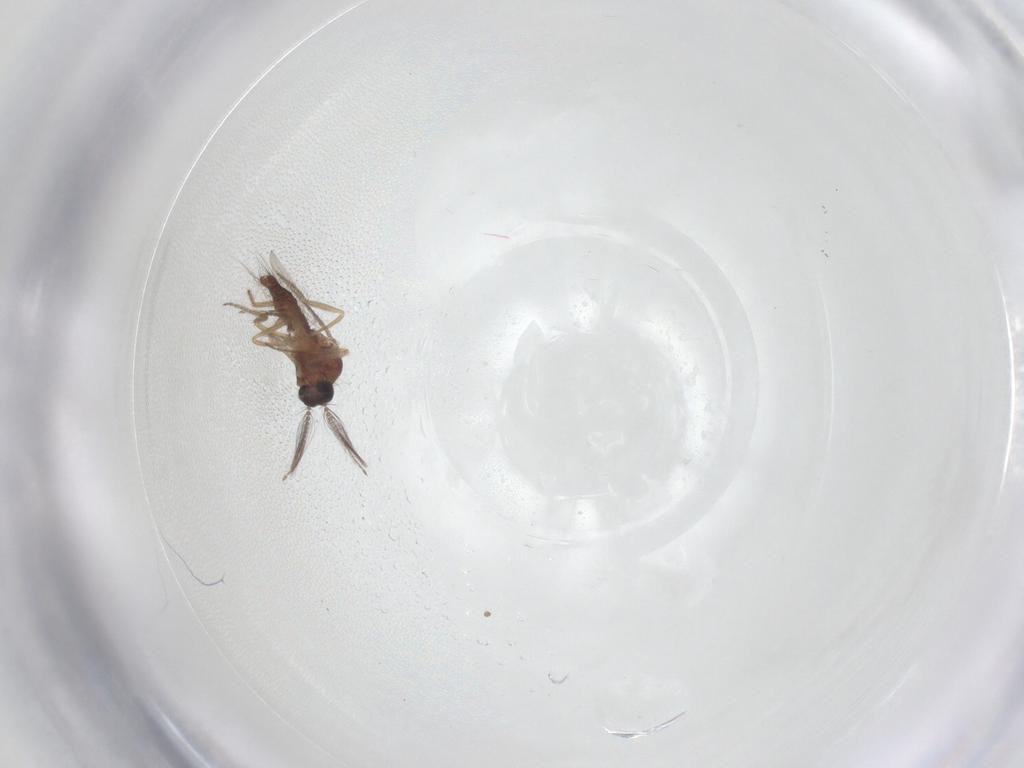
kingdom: Animalia
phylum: Arthropoda
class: Insecta
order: Diptera
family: Ceratopogonidae
